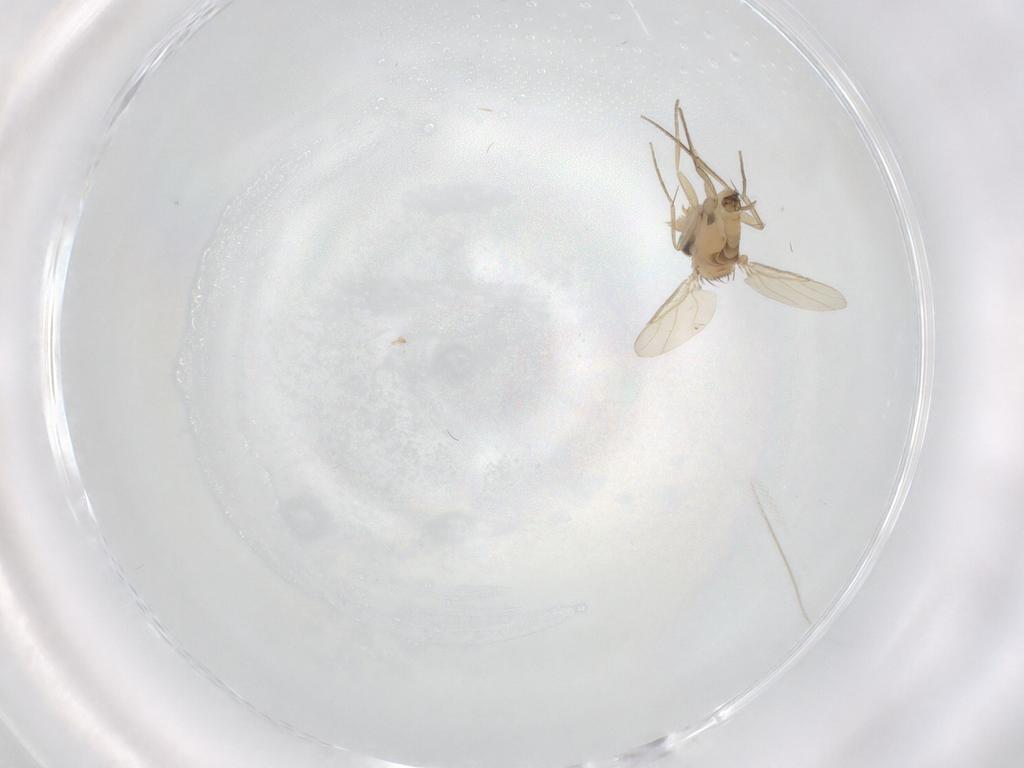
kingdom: Animalia
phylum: Arthropoda
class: Insecta
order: Diptera
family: Phoridae
